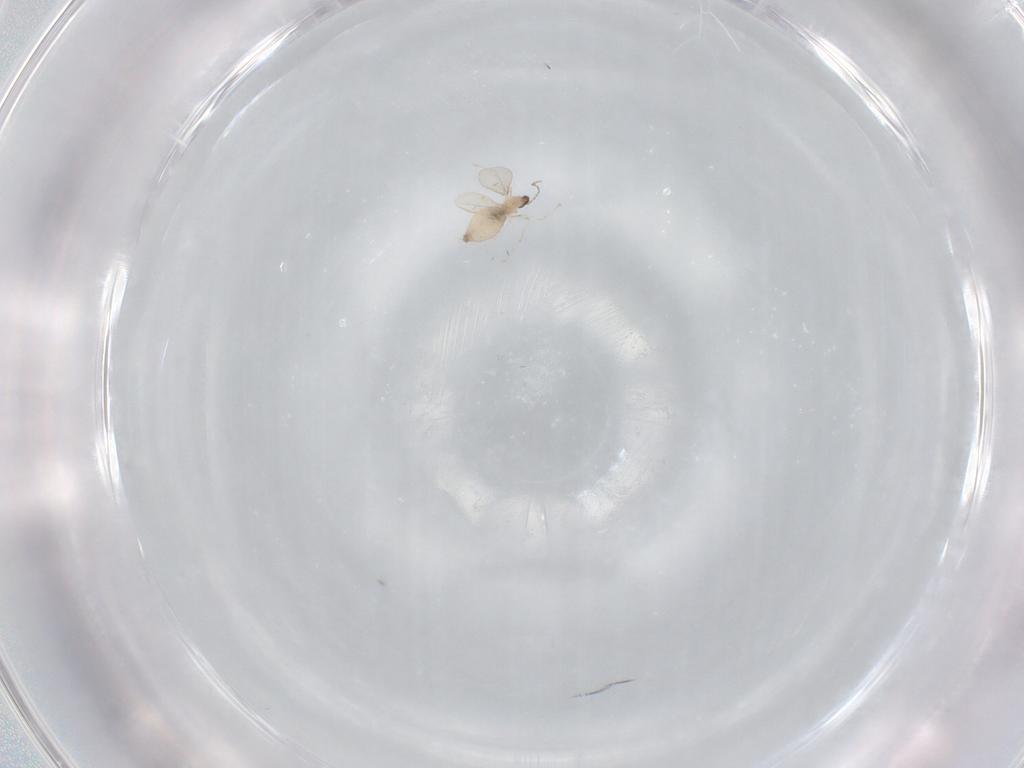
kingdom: Animalia
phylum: Arthropoda
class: Insecta
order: Diptera
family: Cecidomyiidae
